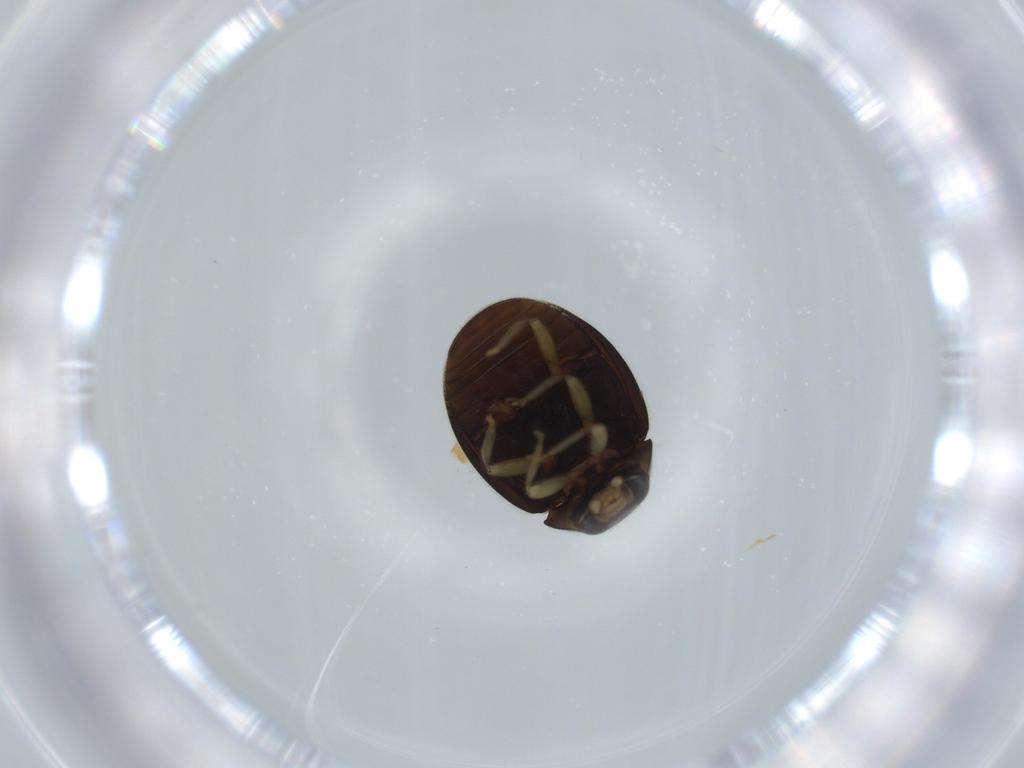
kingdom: Animalia
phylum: Arthropoda
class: Insecta
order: Coleoptera
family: Coccinellidae
